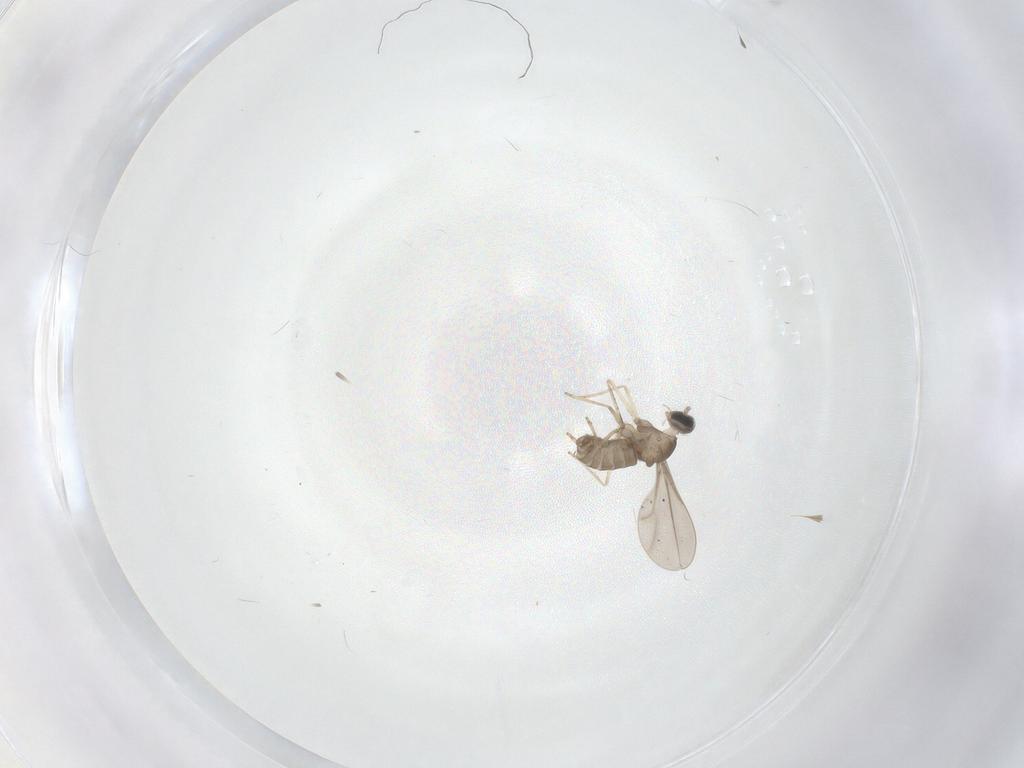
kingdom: Animalia
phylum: Arthropoda
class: Insecta
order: Diptera
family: Cecidomyiidae
